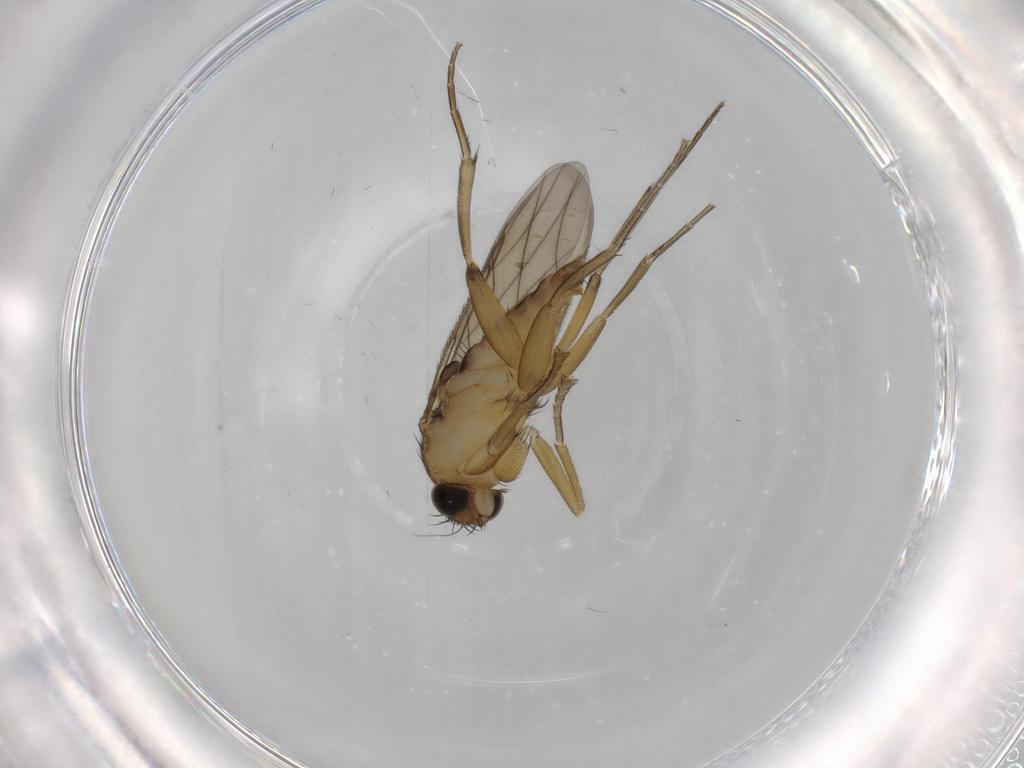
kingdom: Animalia
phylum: Arthropoda
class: Insecta
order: Diptera
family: Phoridae
